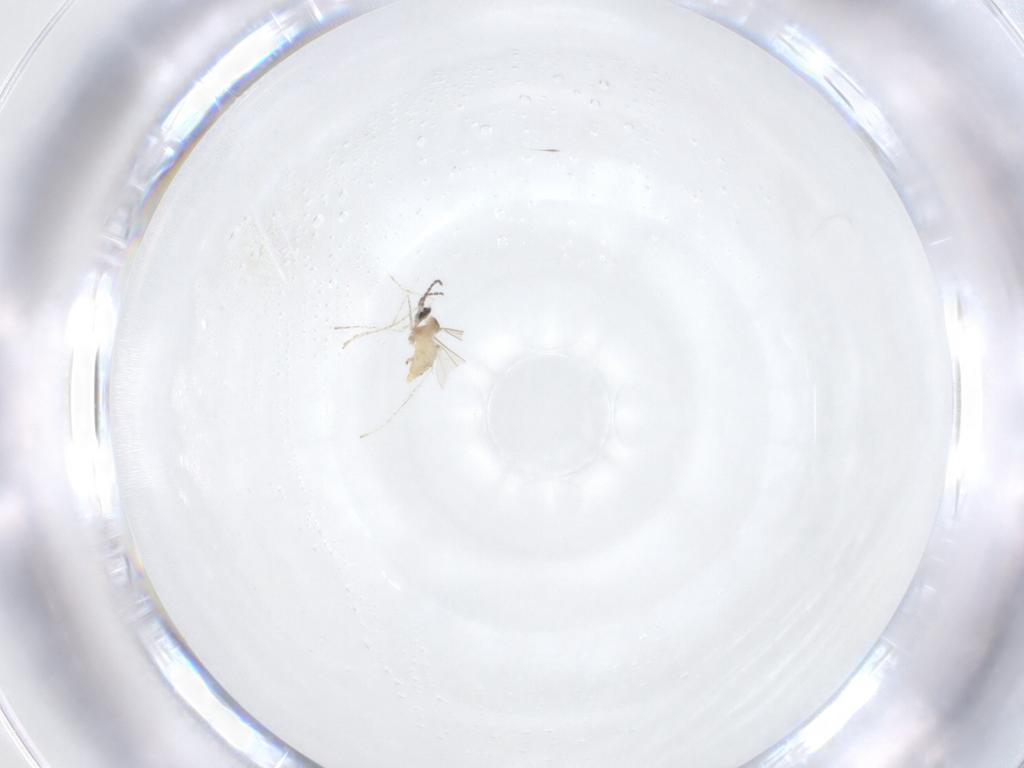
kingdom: Animalia
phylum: Arthropoda
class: Insecta
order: Diptera
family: Cecidomyiidae
